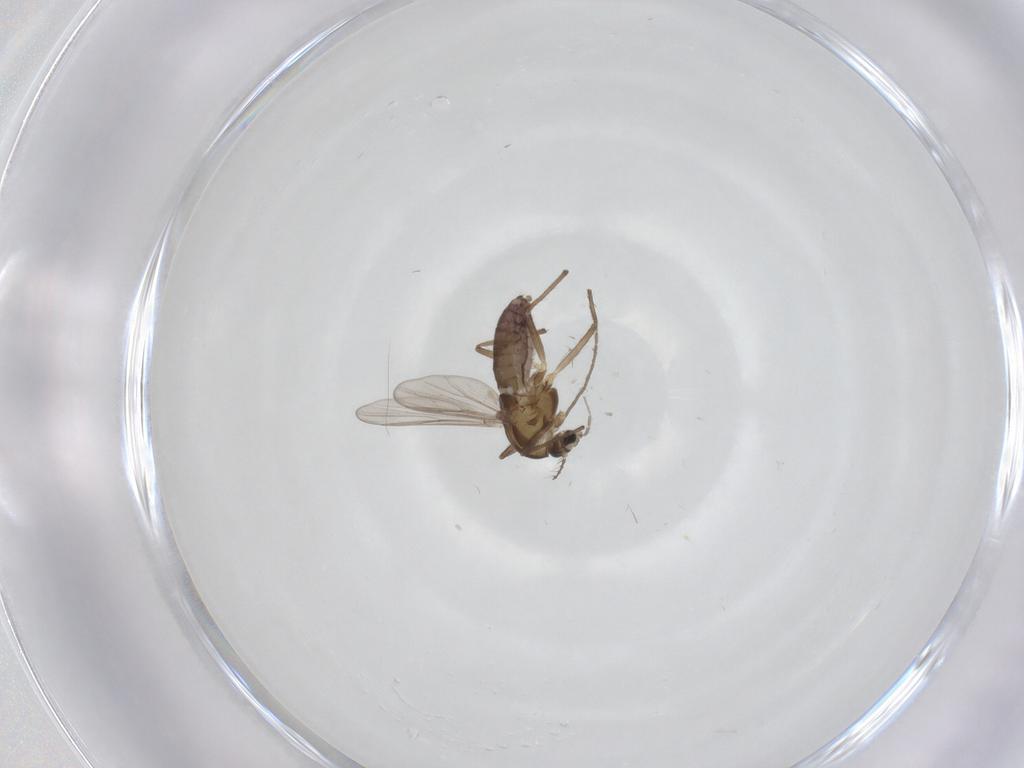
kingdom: Animalia
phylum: Arthropoda
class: Insecta
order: Diptera
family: Chironomidae
